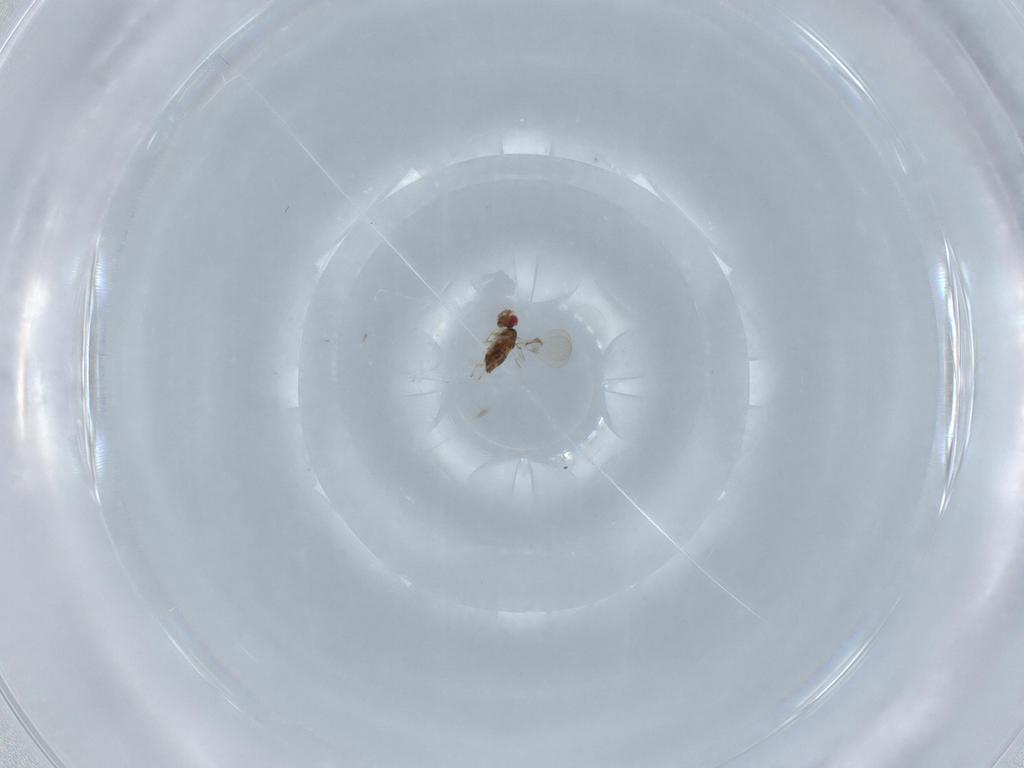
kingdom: Animalia
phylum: Arthropoda
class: Insecta
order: Hymenoptera
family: Trichogrammatidae
